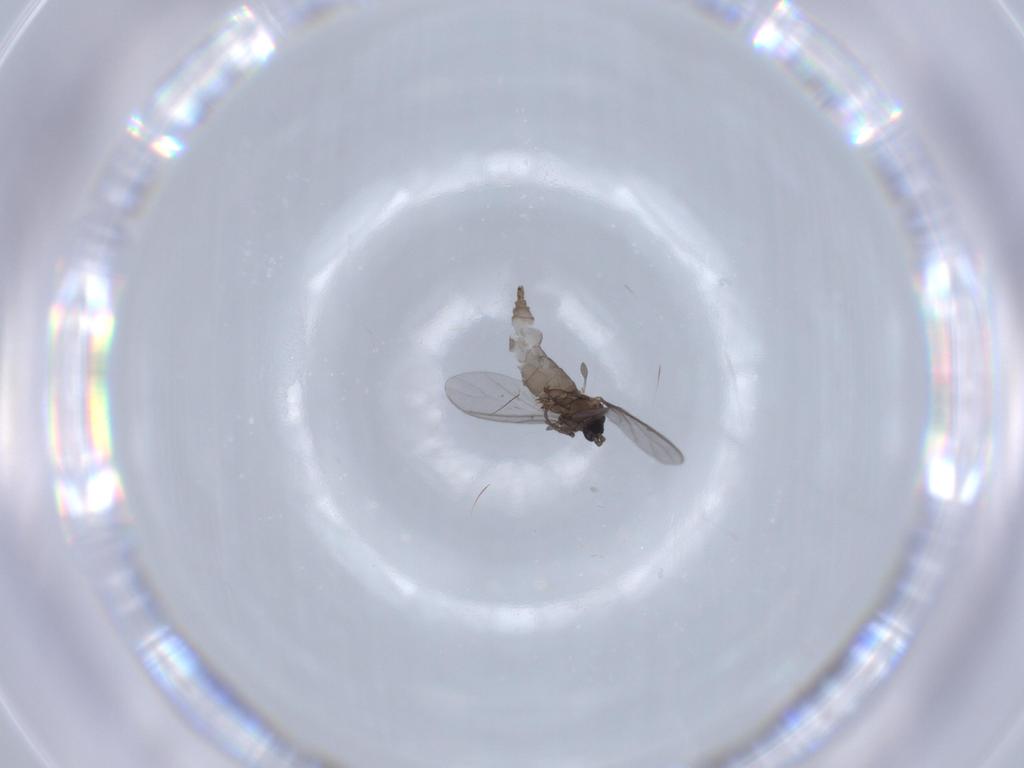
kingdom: Animalia
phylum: Arthropoda
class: Insecta
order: Diptera
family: Sciaridae
